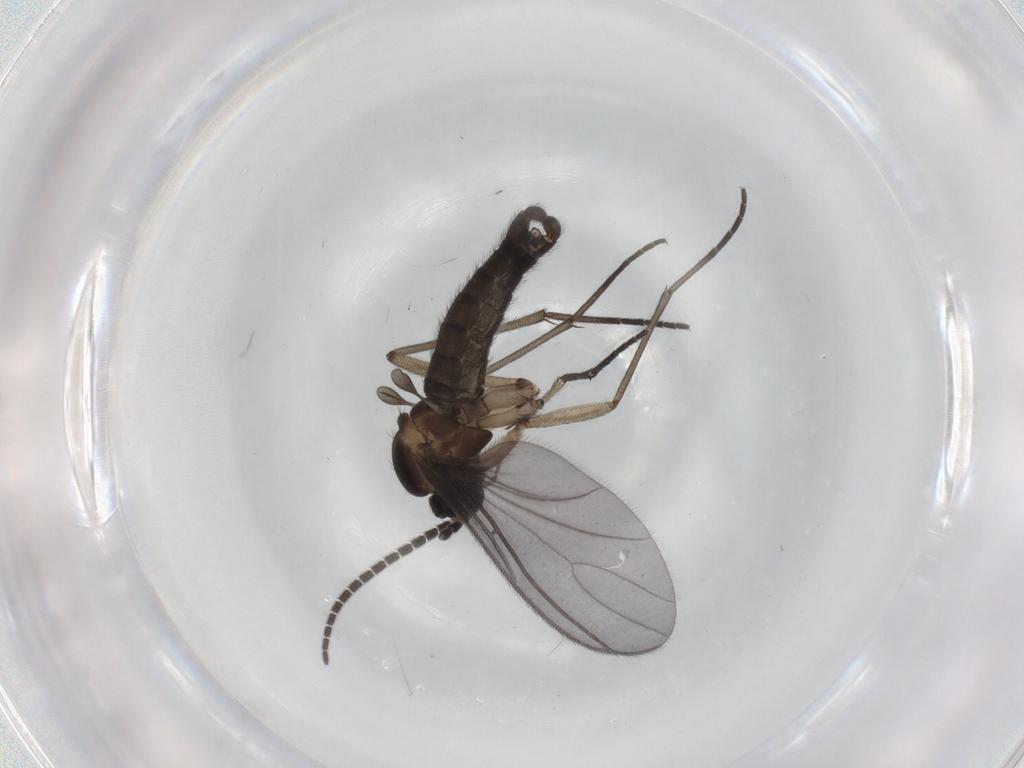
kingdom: Animalia
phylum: Arthropoda
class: Insecta
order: Diptera
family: Sciaridae
